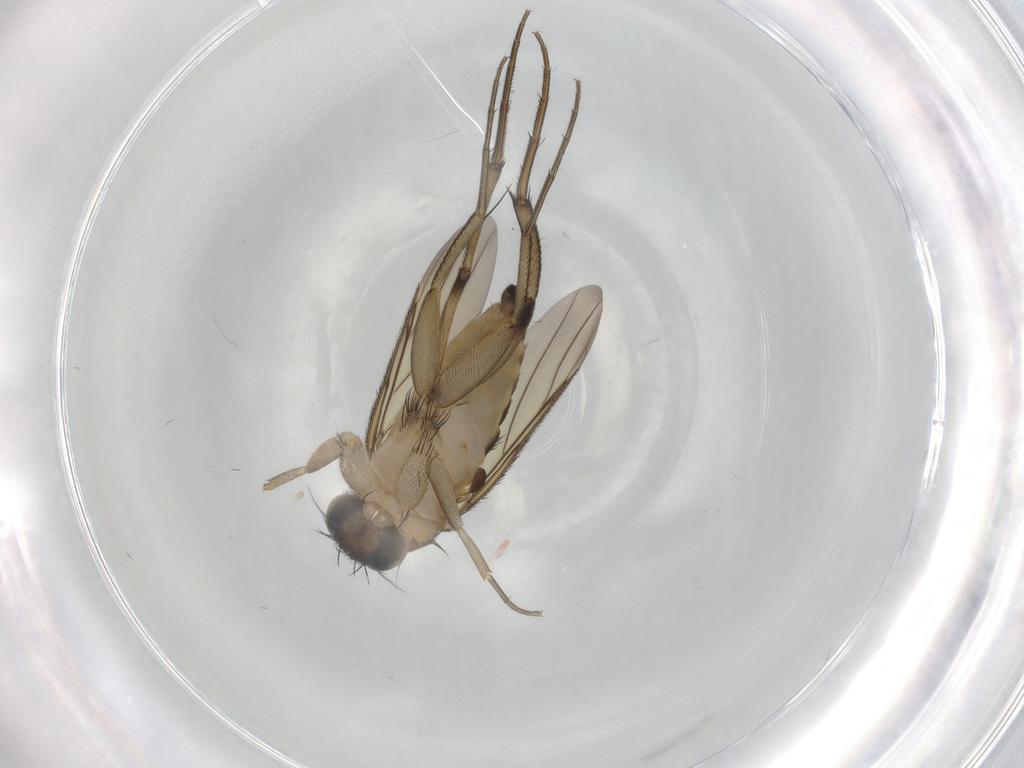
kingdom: Animalia
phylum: Arthropoda
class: Insecta
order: Diptera
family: Phoridae
